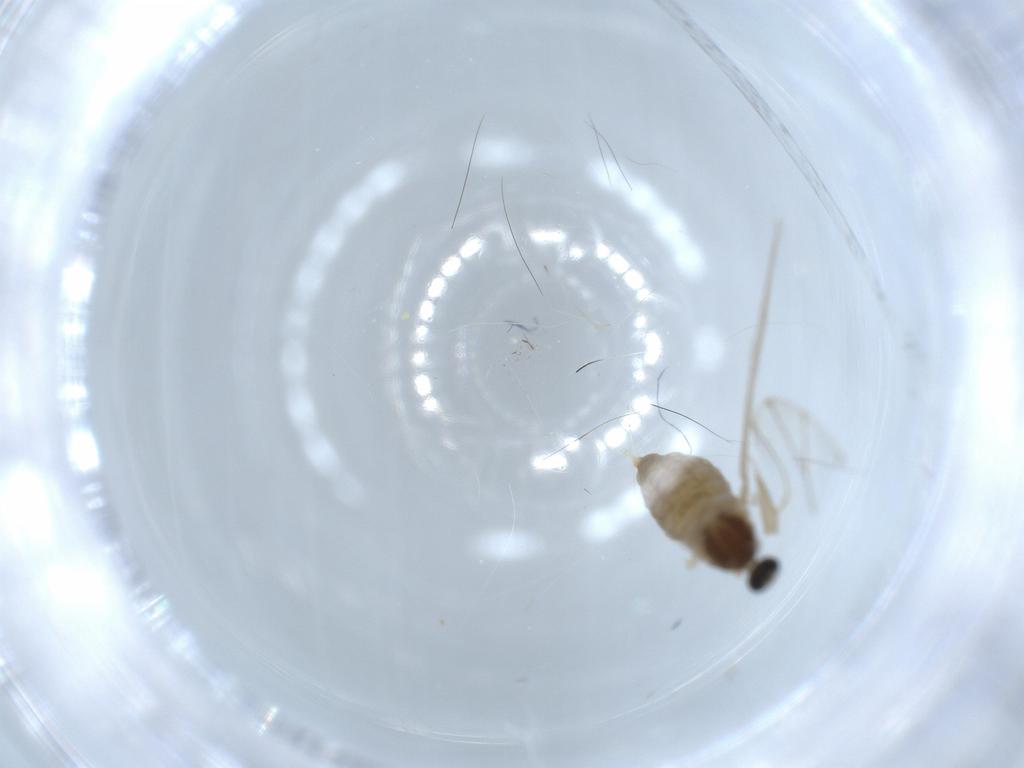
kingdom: Animalia
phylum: Arthropoda
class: Insecta
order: Diptera
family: Cecidomyiidae
